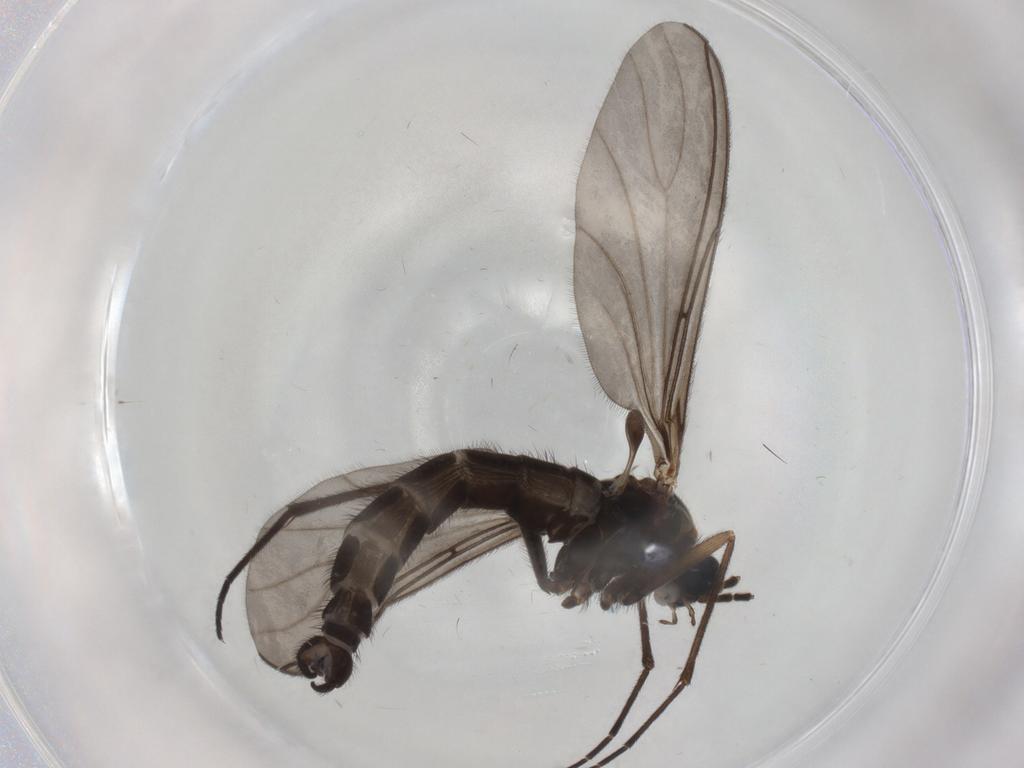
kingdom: Animalia
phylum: Arthropoda
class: Insecta
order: Diptera
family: Sciaridae
